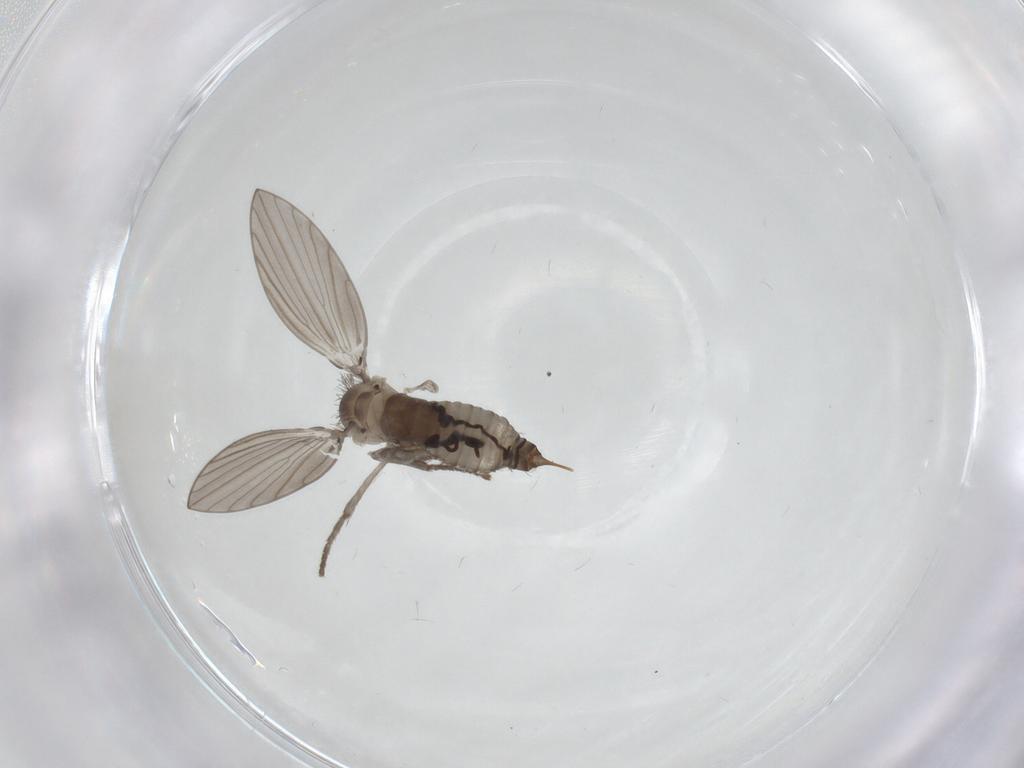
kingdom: Animalia
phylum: Arthropoda
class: Insecta
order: Diptera
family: Psychodidae
